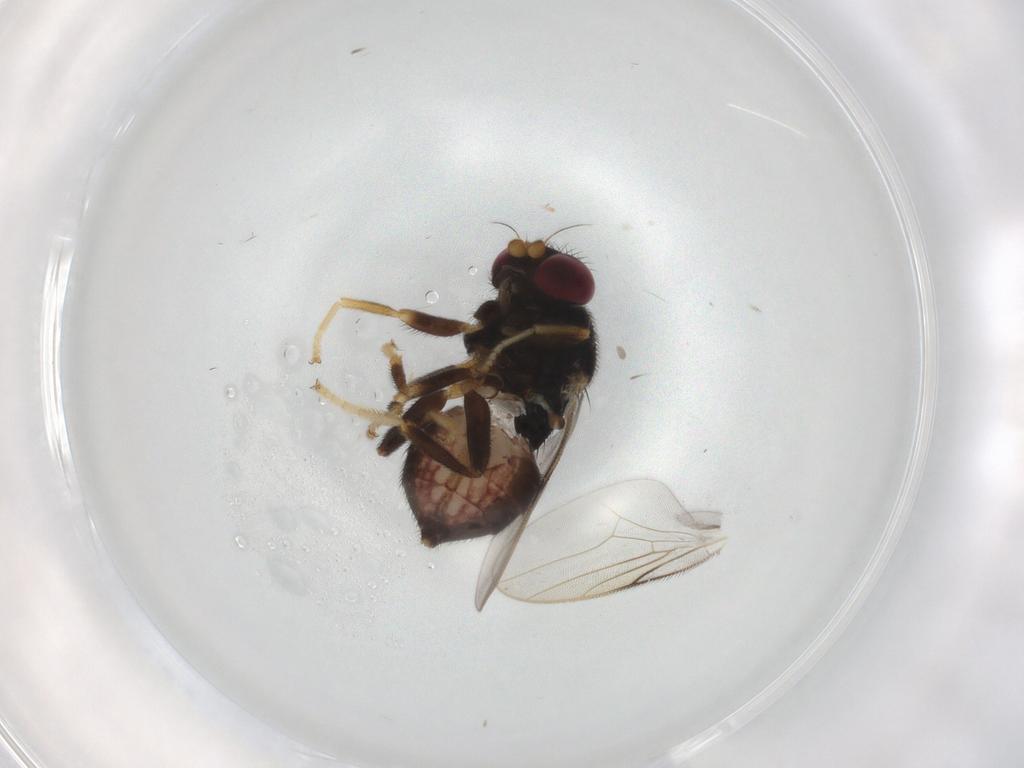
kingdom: Animalia
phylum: Arthropoda
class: Insecta
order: Diptera
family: Chloropidae
